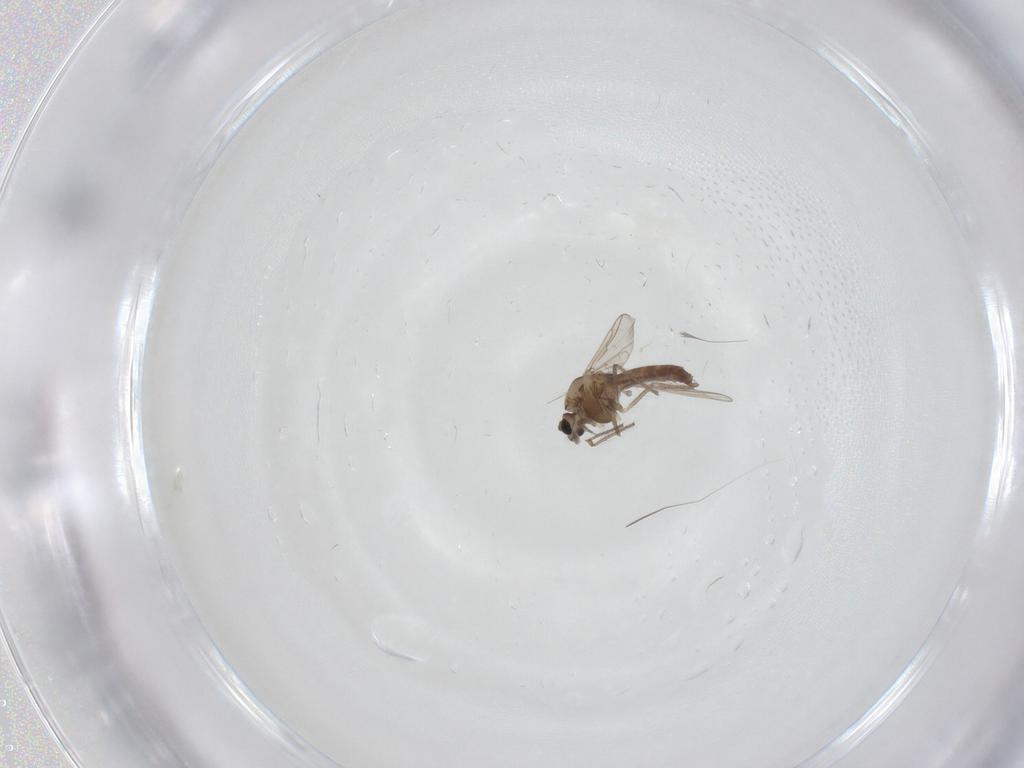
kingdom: Animalia
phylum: Arthropoda
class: Insecta
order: Diptera
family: Chironomidae
